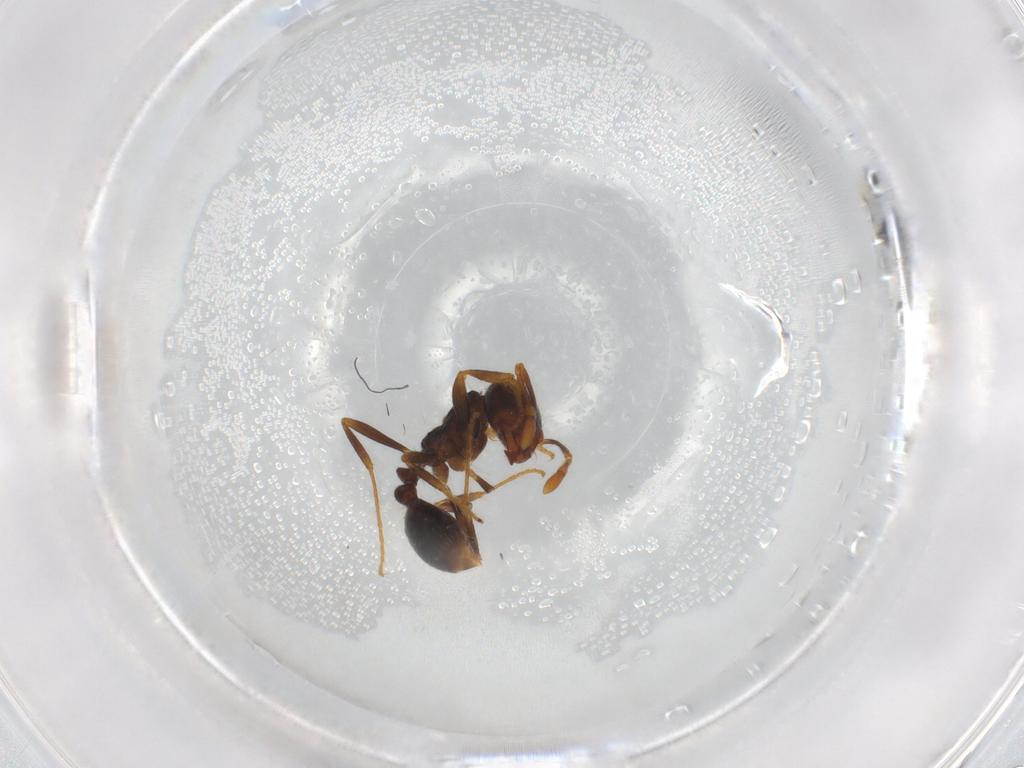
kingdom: Animalia
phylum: Arthropoda
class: Insecta
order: Hymenoptera
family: Formicidae
